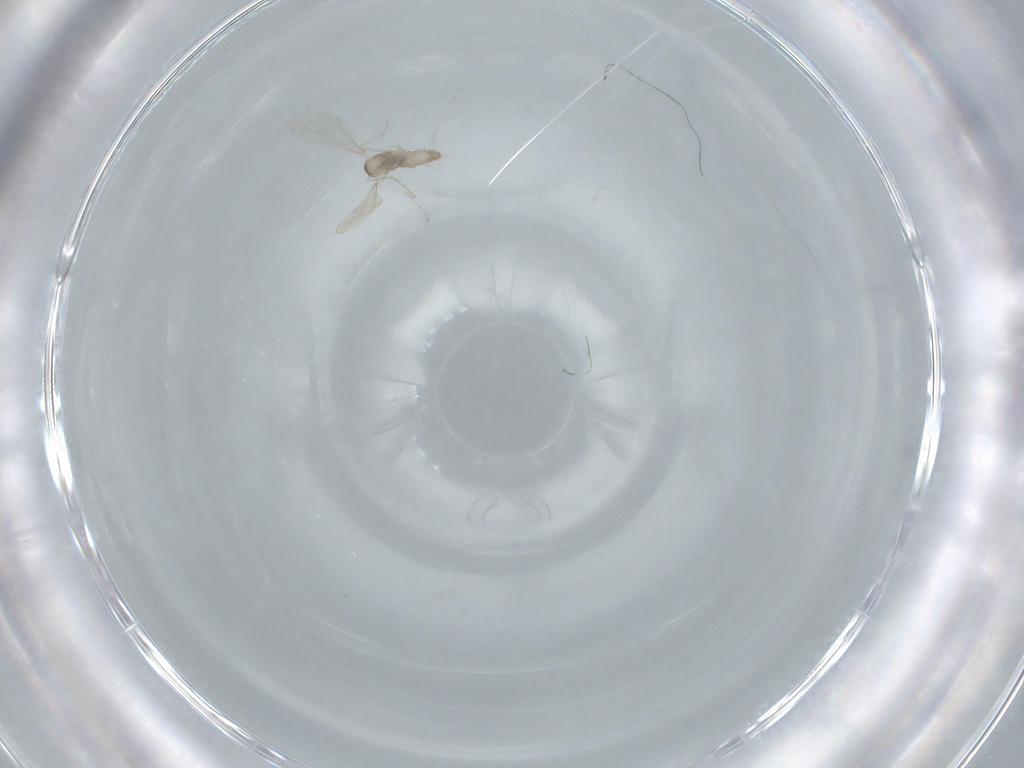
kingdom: Animalia
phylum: Arthropoda
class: Insecta
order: Diptera
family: Cecidomyiidae
